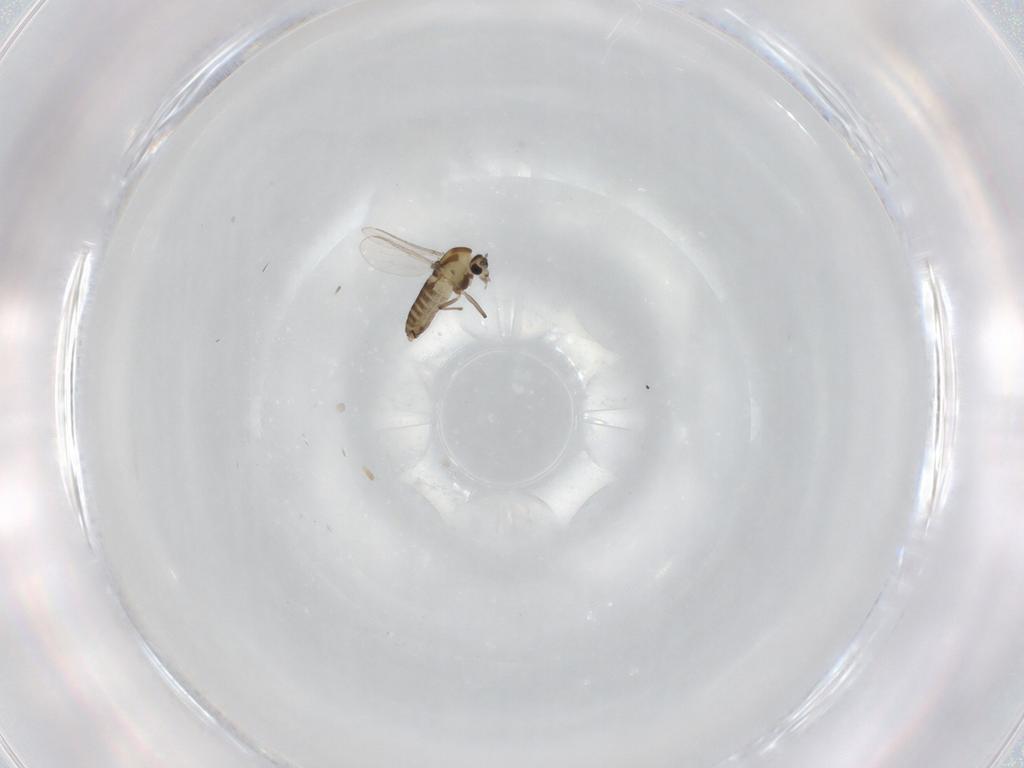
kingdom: Animalia
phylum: Arthropoda
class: Insecta
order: Diptera
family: Chironomidae
